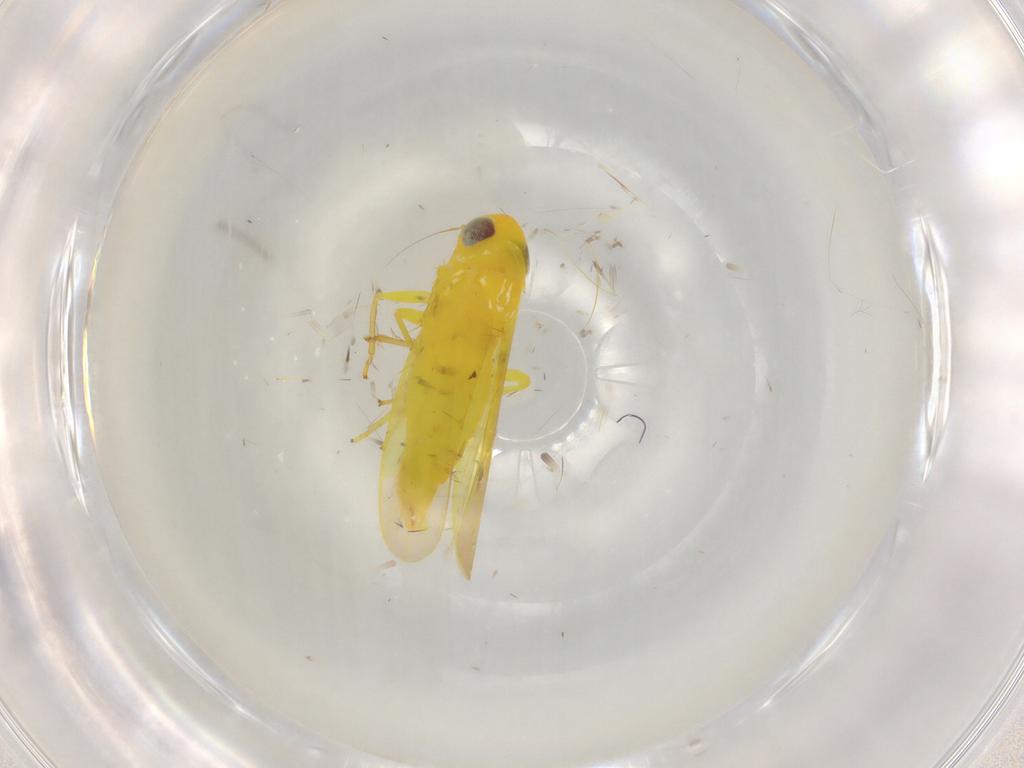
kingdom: Animalia
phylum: Arthropoda
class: Insecta
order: Hemiptera
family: Cicadellidae
